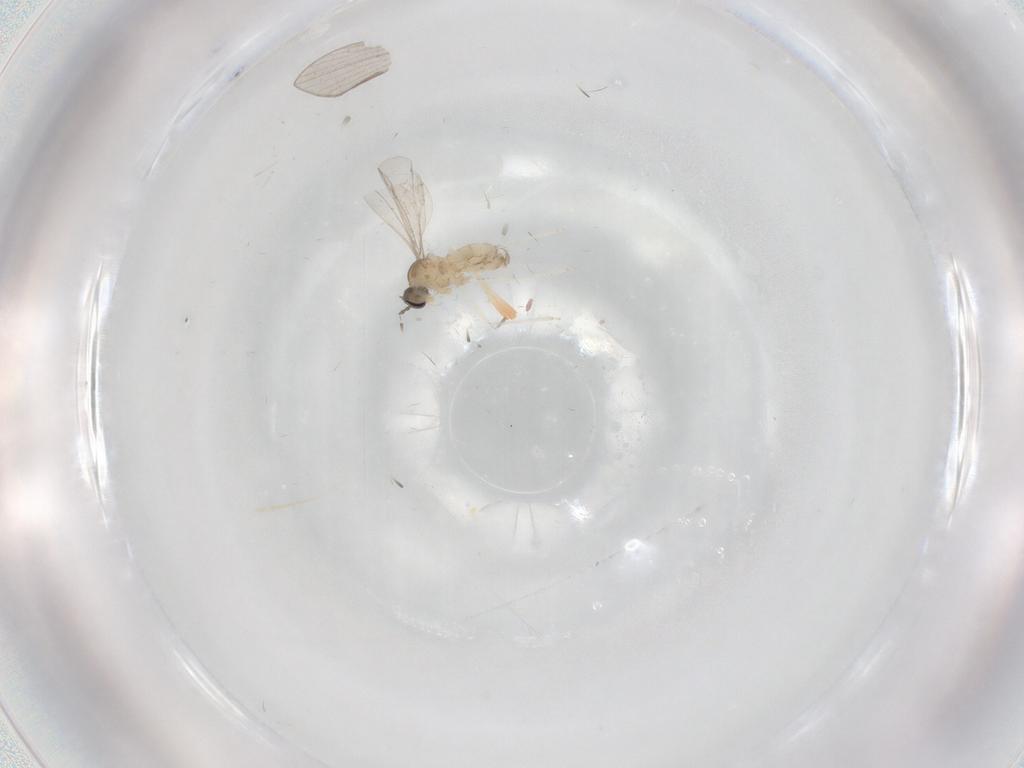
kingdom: Animalia
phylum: Arthropoda
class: Insecta
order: Diptera
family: Cecidomyiidae
